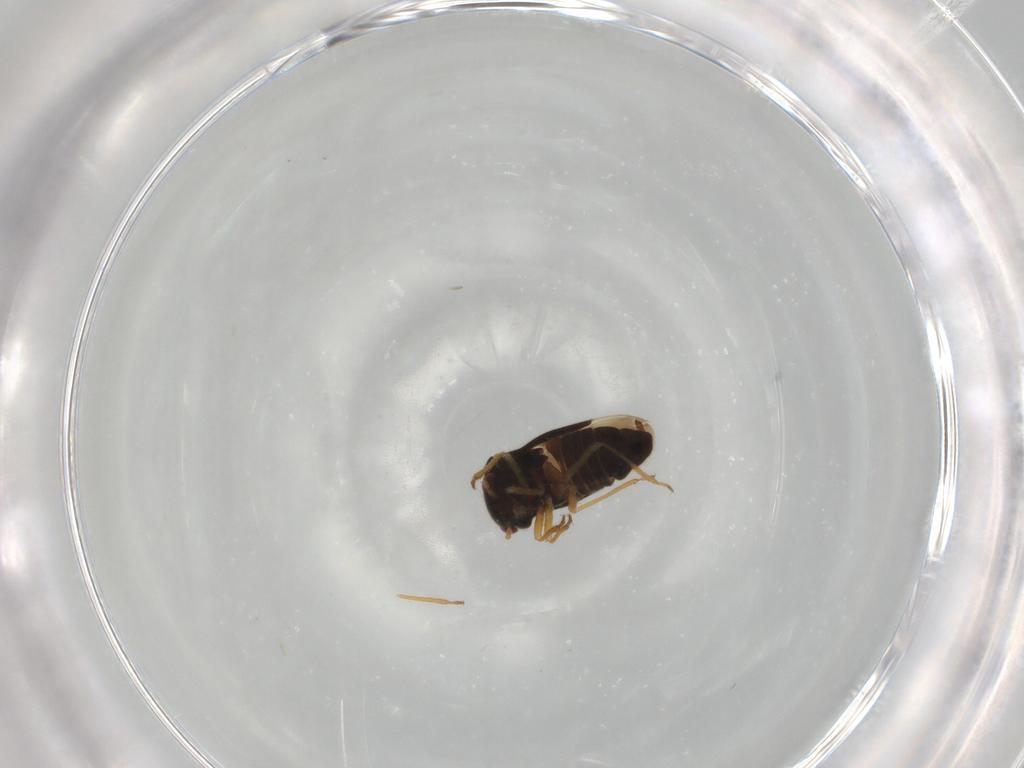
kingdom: Animalia
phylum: Arthropoda
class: Insecta
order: Hemiptera
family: Schizopteridae
